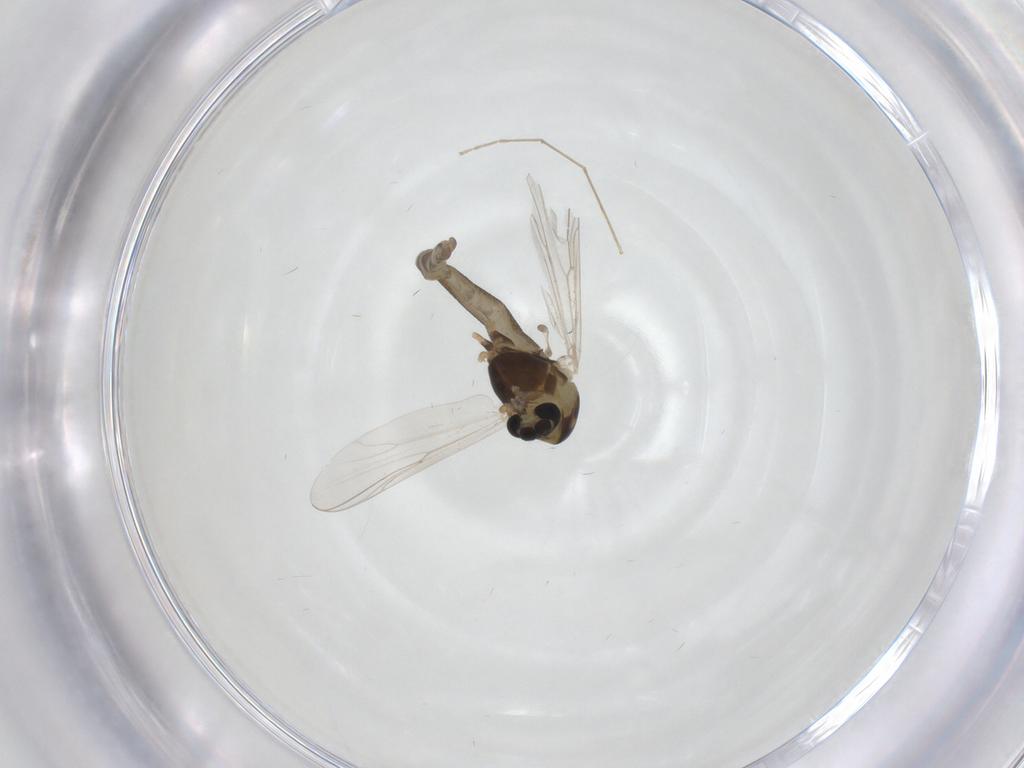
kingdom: Animalia
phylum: Arthropoda
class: Insecta
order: Diptera
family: Chironomidae
